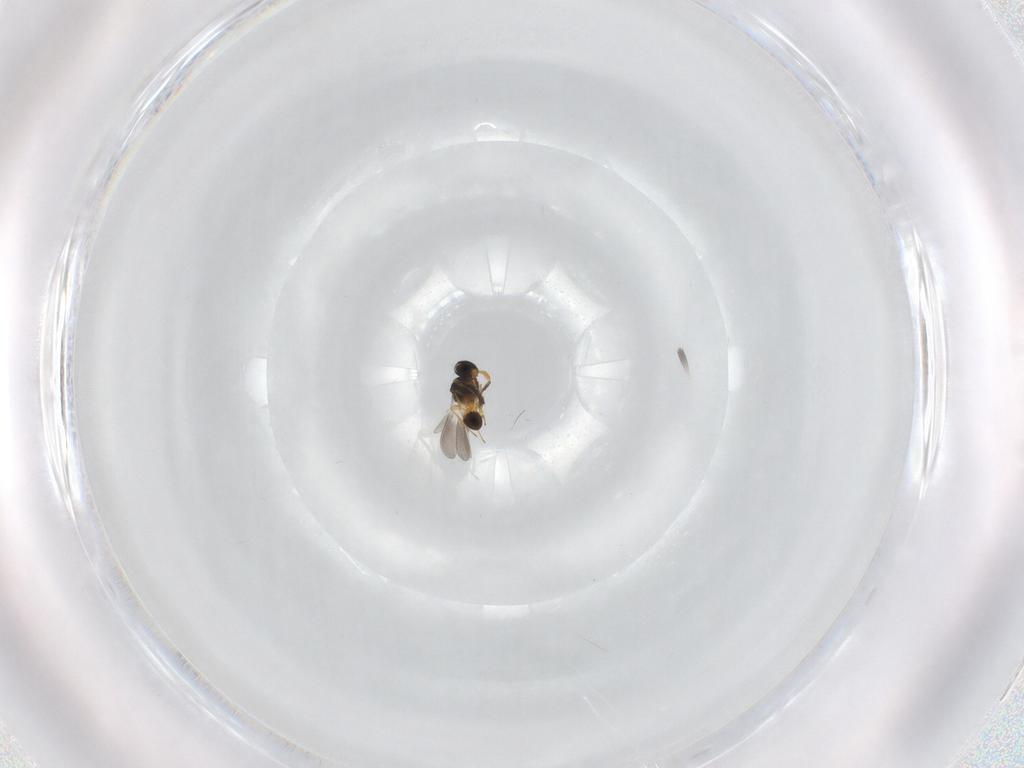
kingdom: Animalia
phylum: Arthropoda
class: Insecta
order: Hymenoptera
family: Platygastridae
